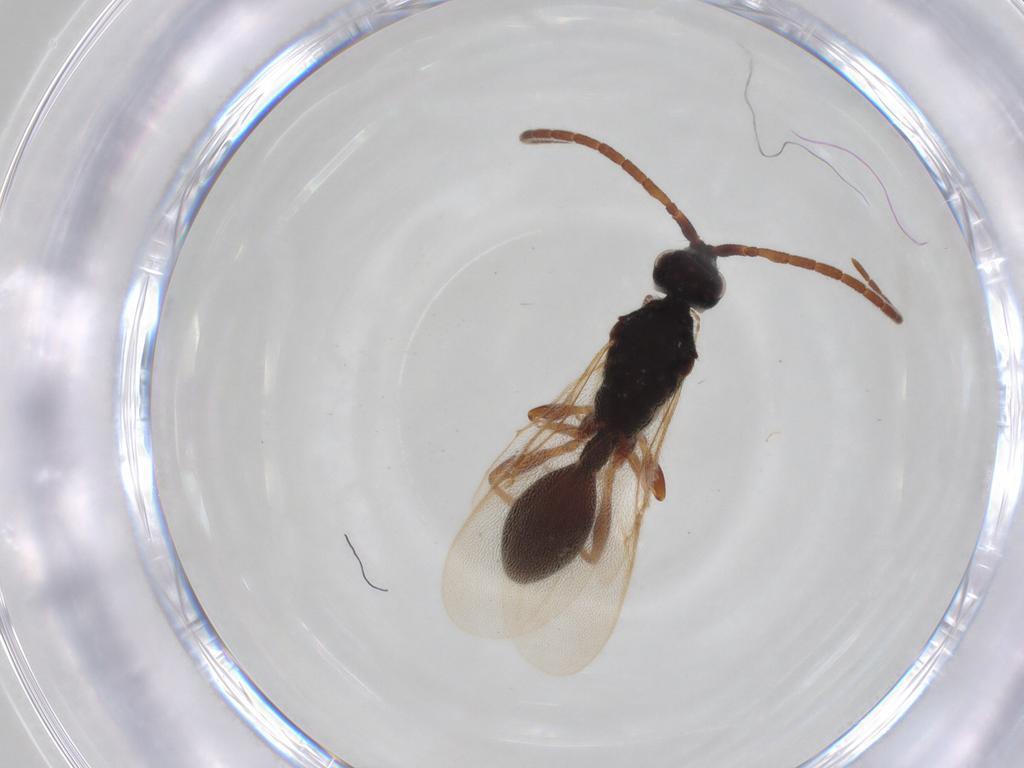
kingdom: Animalia
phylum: Arthropoda
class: Insecta
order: Hymenoptera
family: Diapriidae
